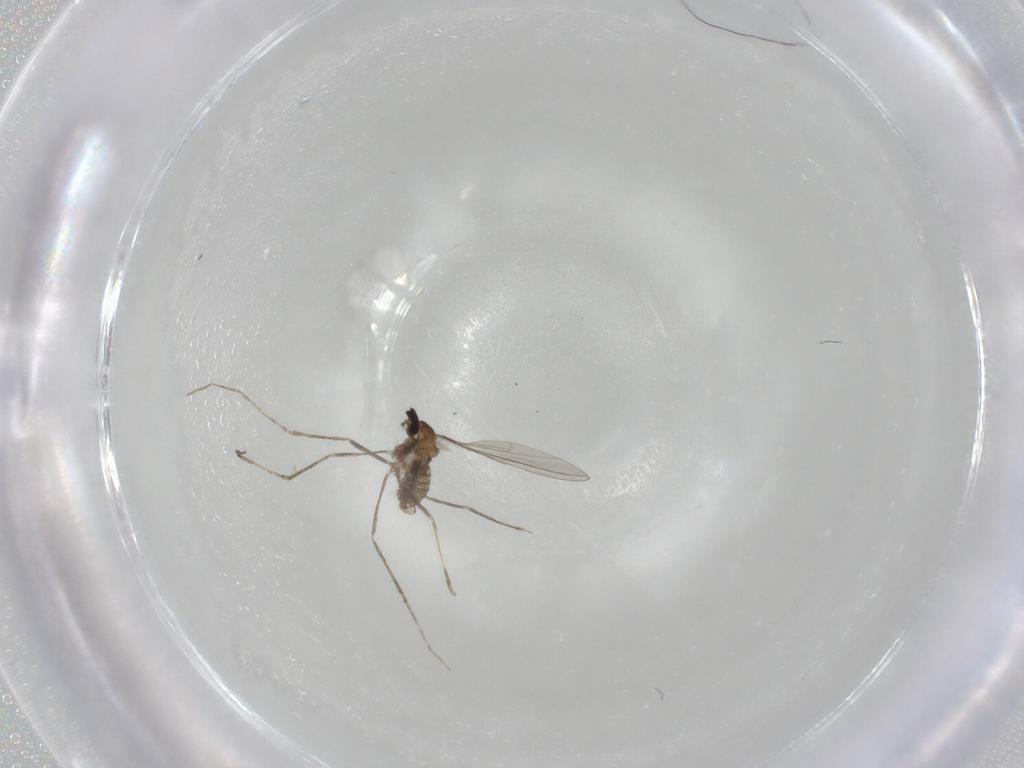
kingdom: Animalia
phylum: Arthropoda
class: Insecta
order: Diptera
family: Cecidomyiidae
